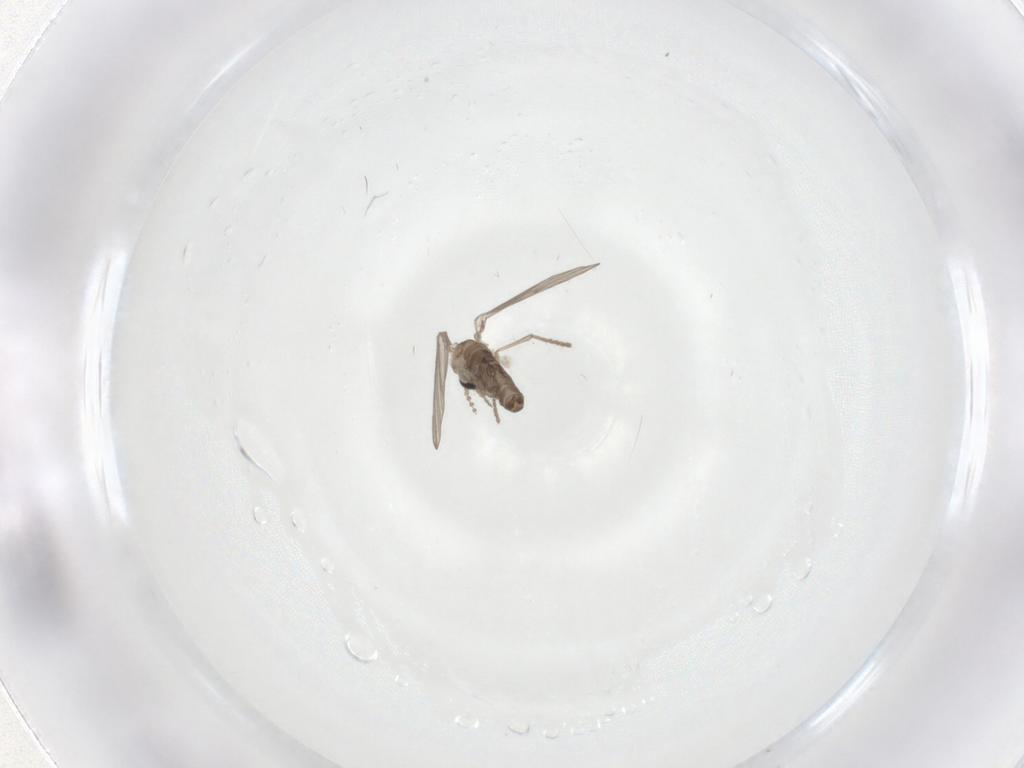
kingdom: Animalia
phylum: Arthropoda
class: Insecta
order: Diptera
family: Psychodidae
